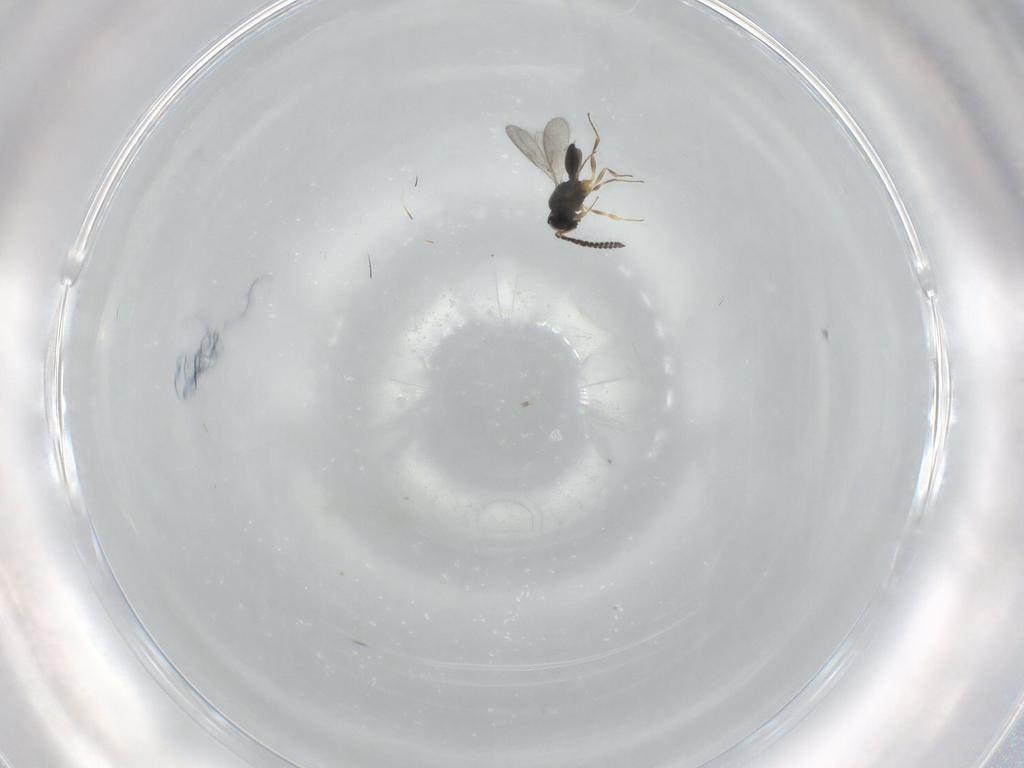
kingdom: Animalia
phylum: Arthropoda
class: Insecta
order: Hymenoptera
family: Scelionidae
